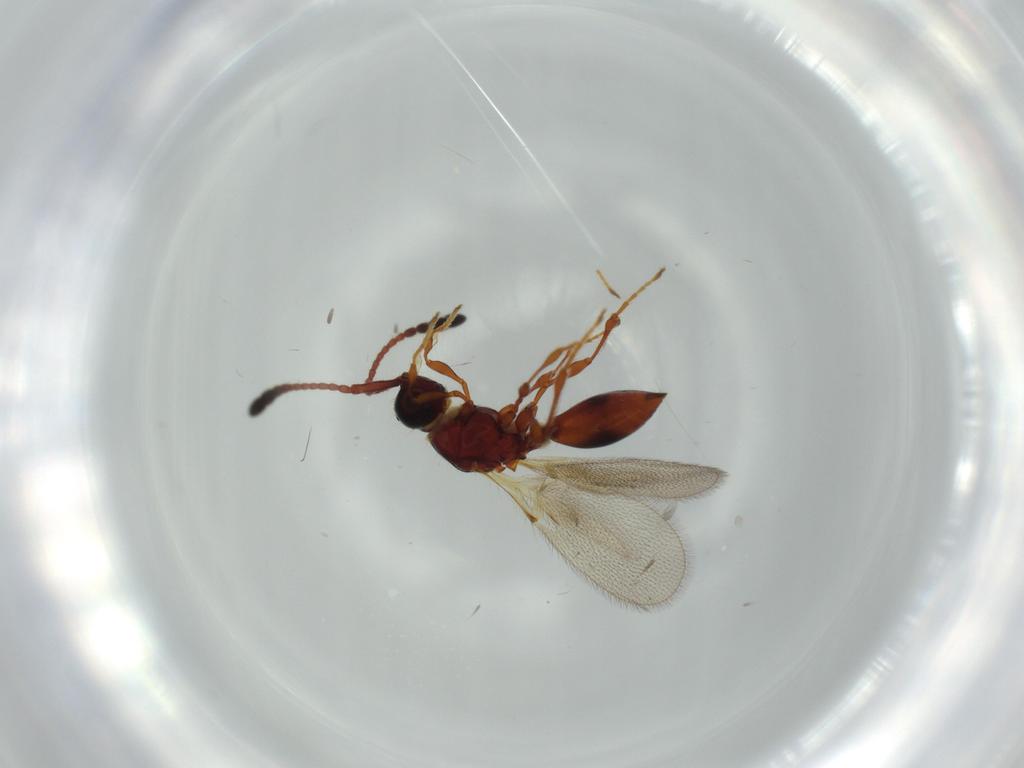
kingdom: Animalia
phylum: Arthropoda
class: Insecta
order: Hymenoptera
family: Diapriidae
